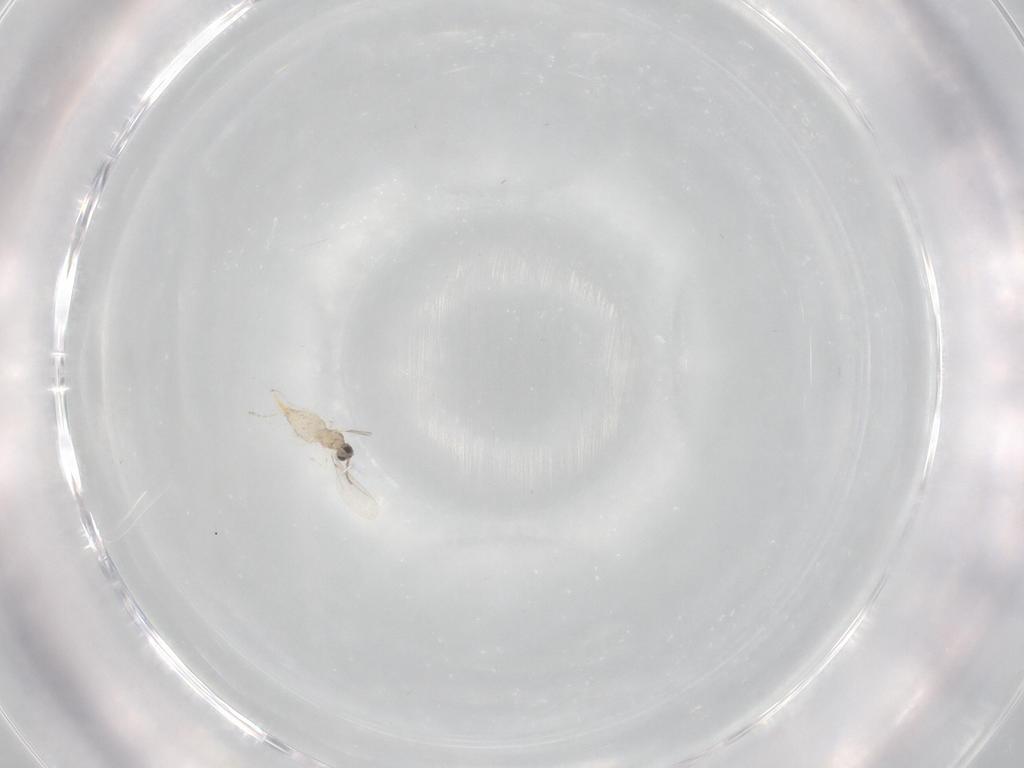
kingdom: Animalia
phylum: Arthropoda
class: Insecta
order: Diptera
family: Cecidomyiidae
